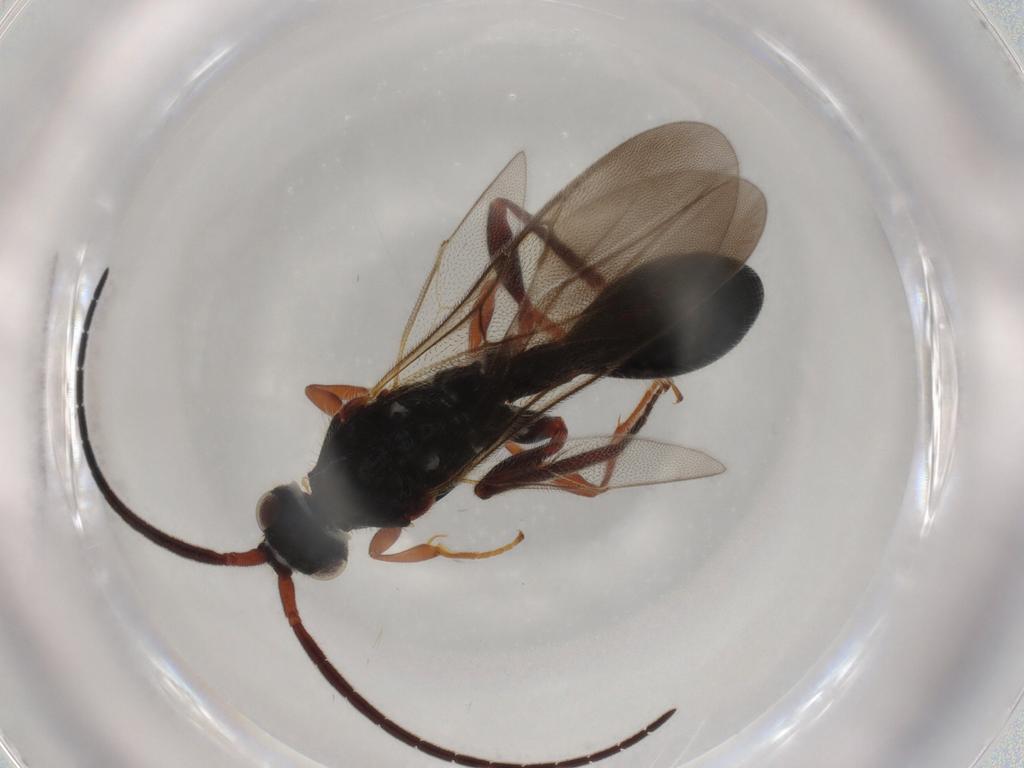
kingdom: Animalia
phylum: Arthropoda
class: Insecta
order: Hymenoptera
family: Diapriidae
